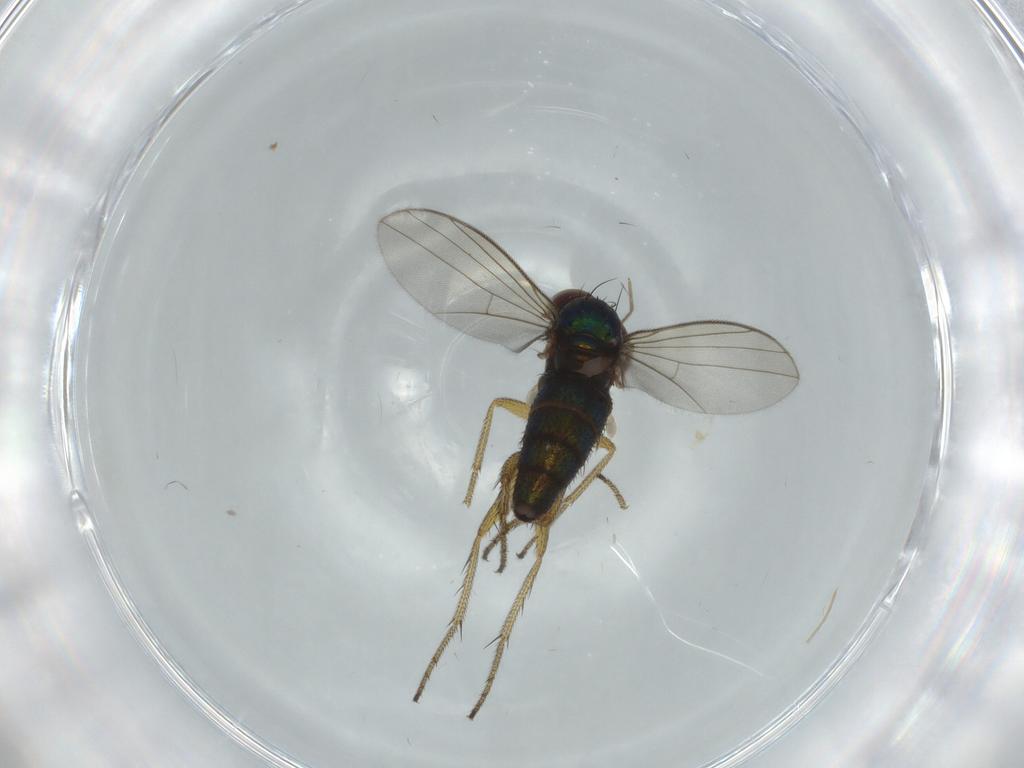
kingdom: Animalia
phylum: Arthropoda
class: Insecta
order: Diptera
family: Dolichopodidae
